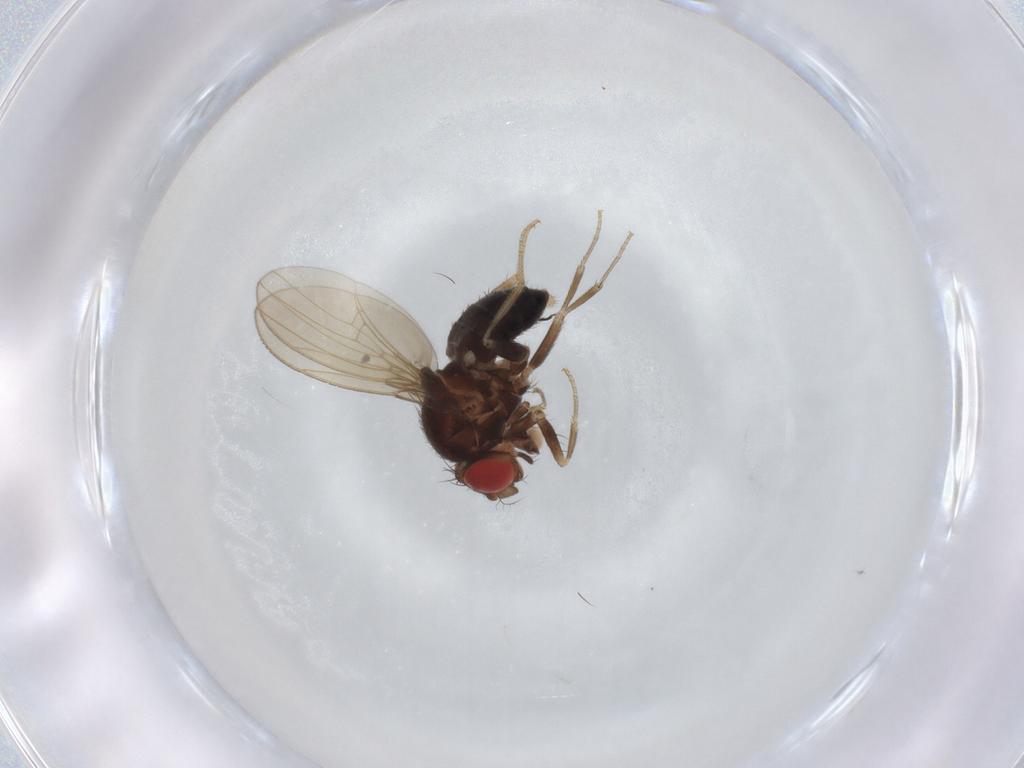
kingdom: Animalia
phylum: Arthropoda
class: Insecta
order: Diptera
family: Drosophilidae
